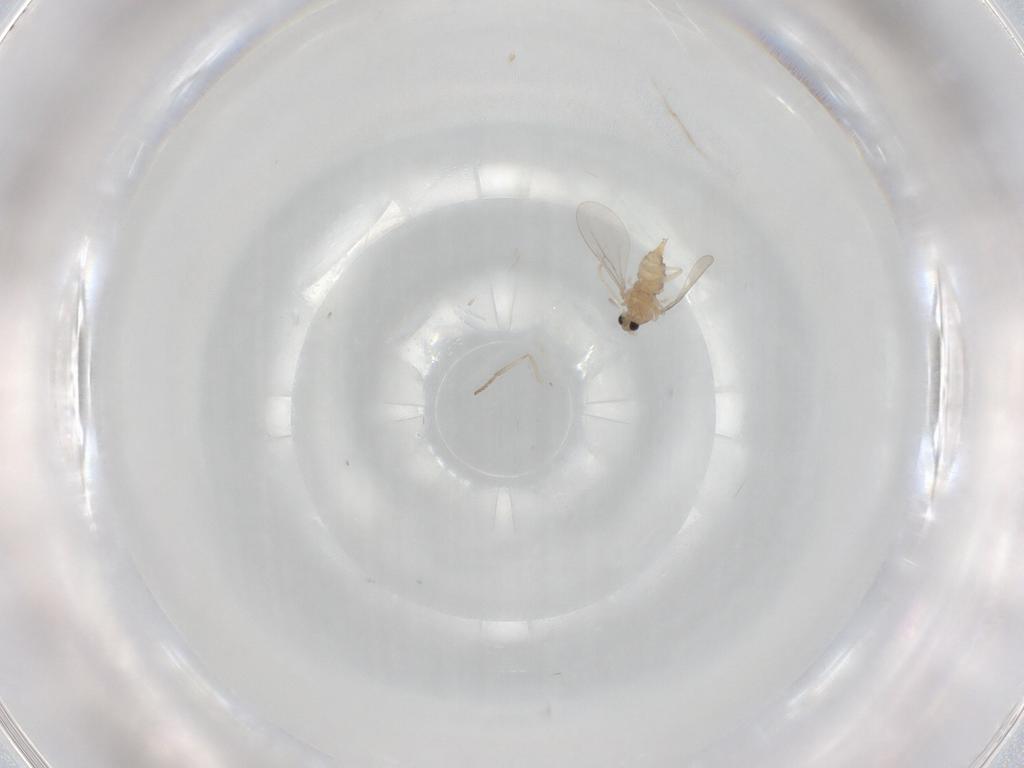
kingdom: Animalia
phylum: Arthropoda
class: Insecta
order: Diptera
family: Cecidomyiidae
